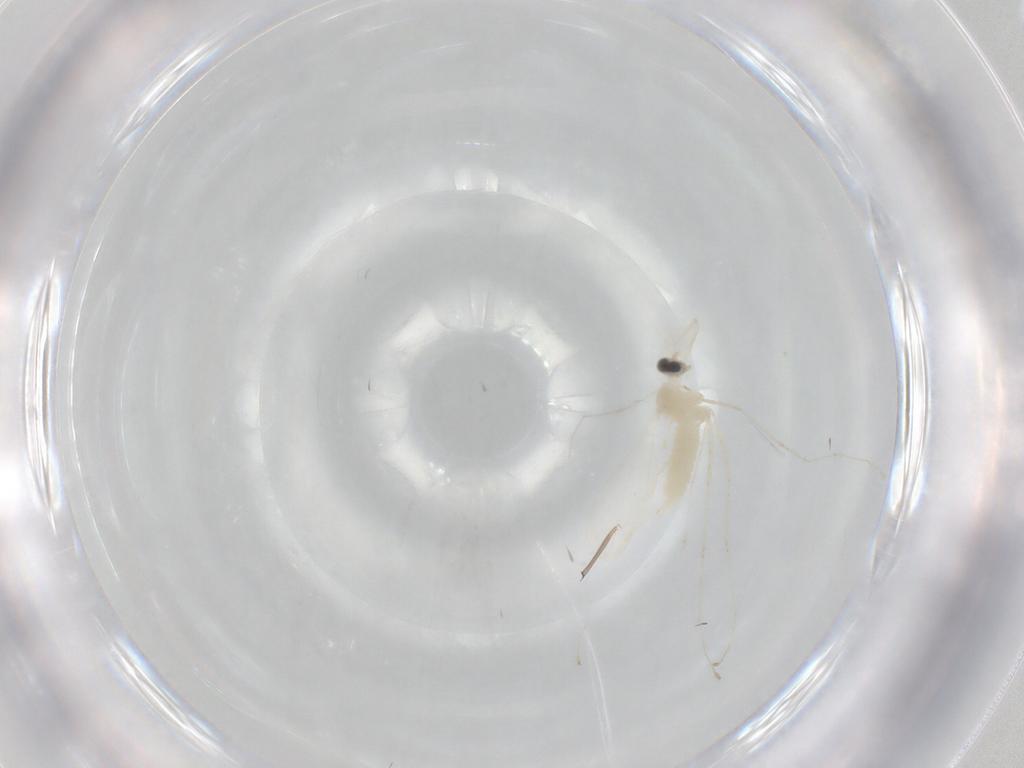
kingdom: Animalia
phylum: Arthropoda
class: Insecta
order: Diptera
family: Cecidomyiidae
